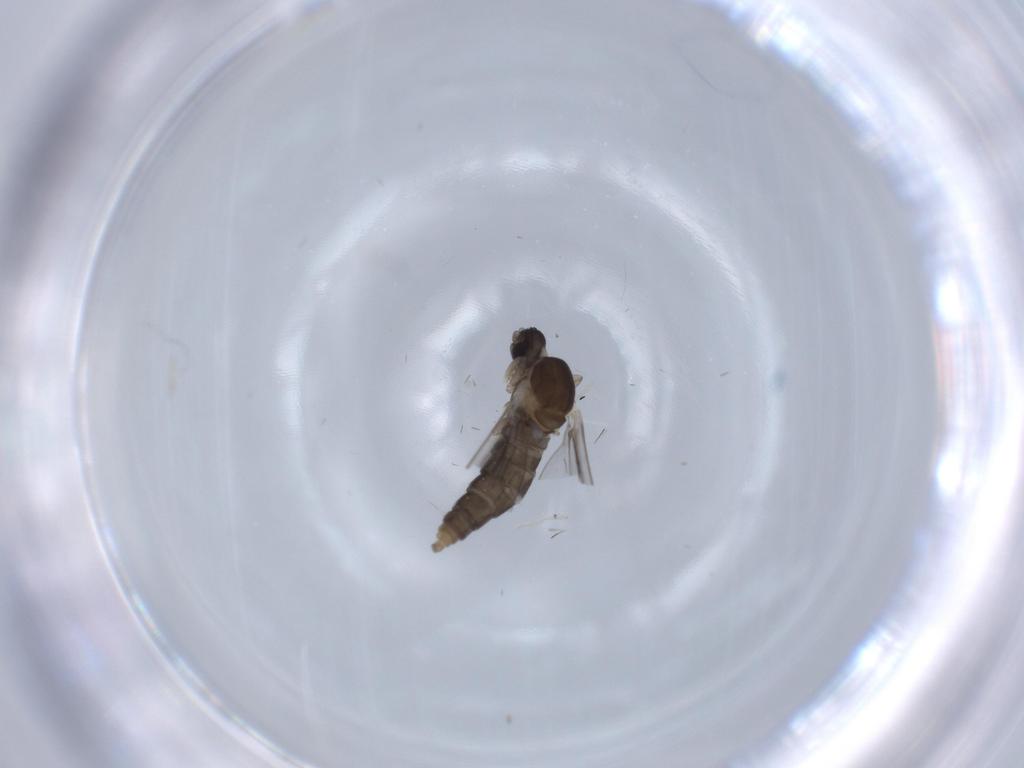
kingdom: Animalia
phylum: Arthropoda
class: Insecta
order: Diptera
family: Cecidomyiidae
